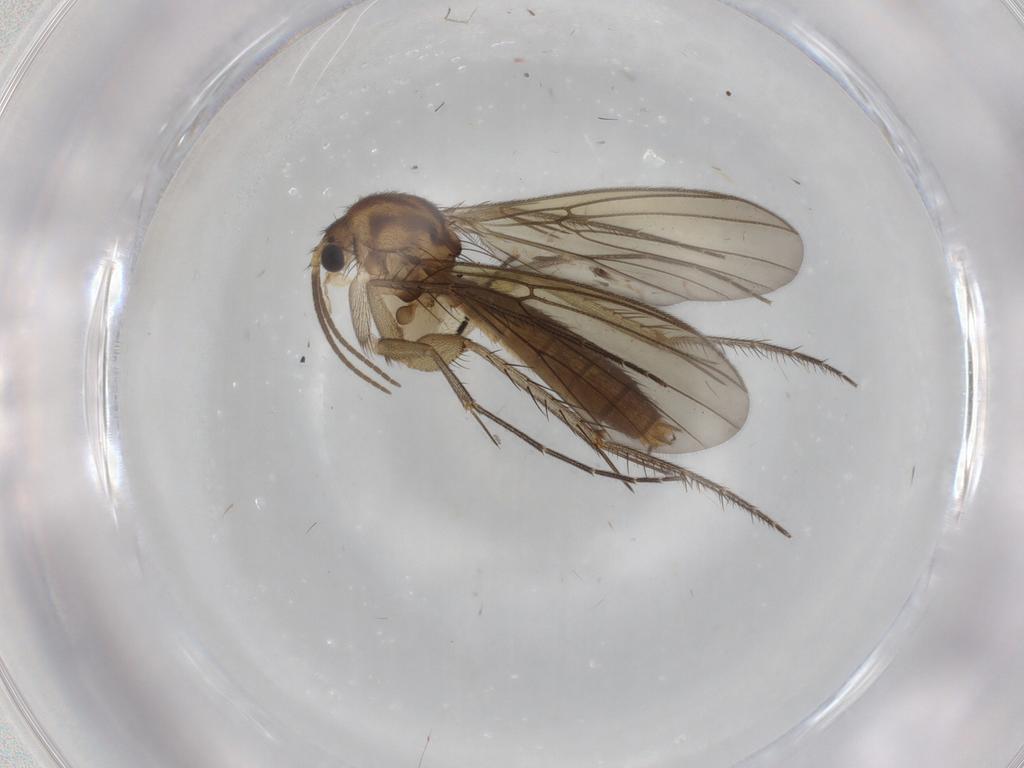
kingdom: Animalia
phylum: Arthropoda
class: Insecta
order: Diptera
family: Mycetophilidae
